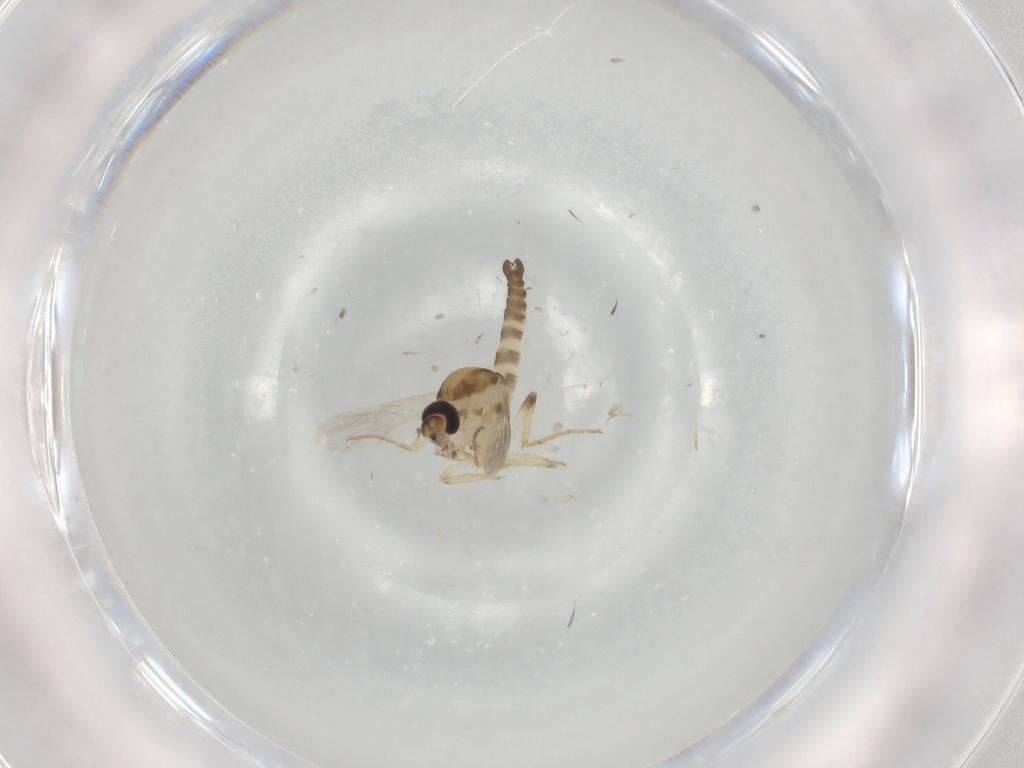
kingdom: Animalia
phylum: Arthropoda
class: Insecta
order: Diptera
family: Ceratopogonidae
